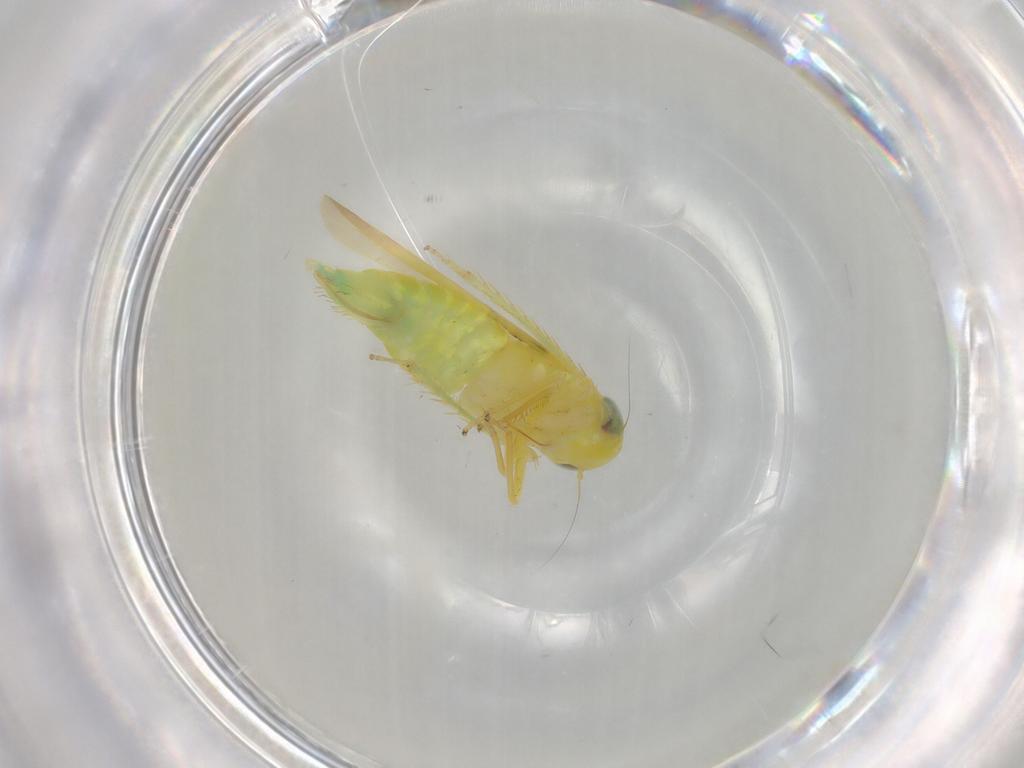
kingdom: Animalia
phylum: Arthropoda
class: Insecta
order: Hemiptera
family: Cicadellidae
